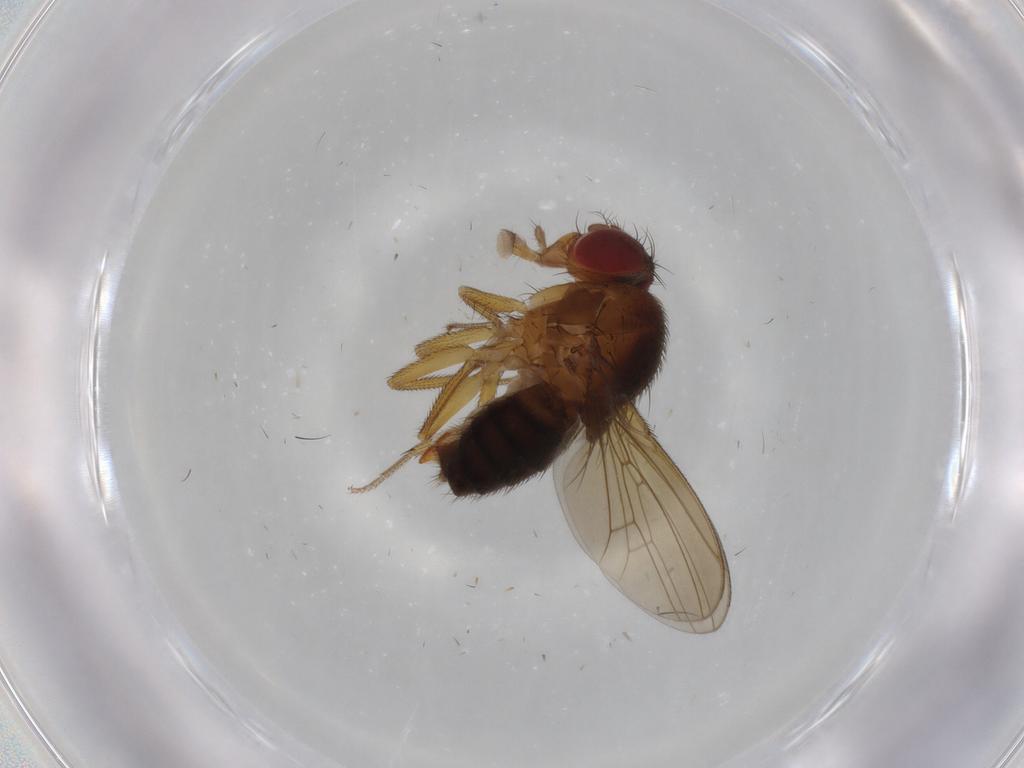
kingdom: Animalia
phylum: Arthropoda
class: Insecta
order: Diptera
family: Drosophilidae
